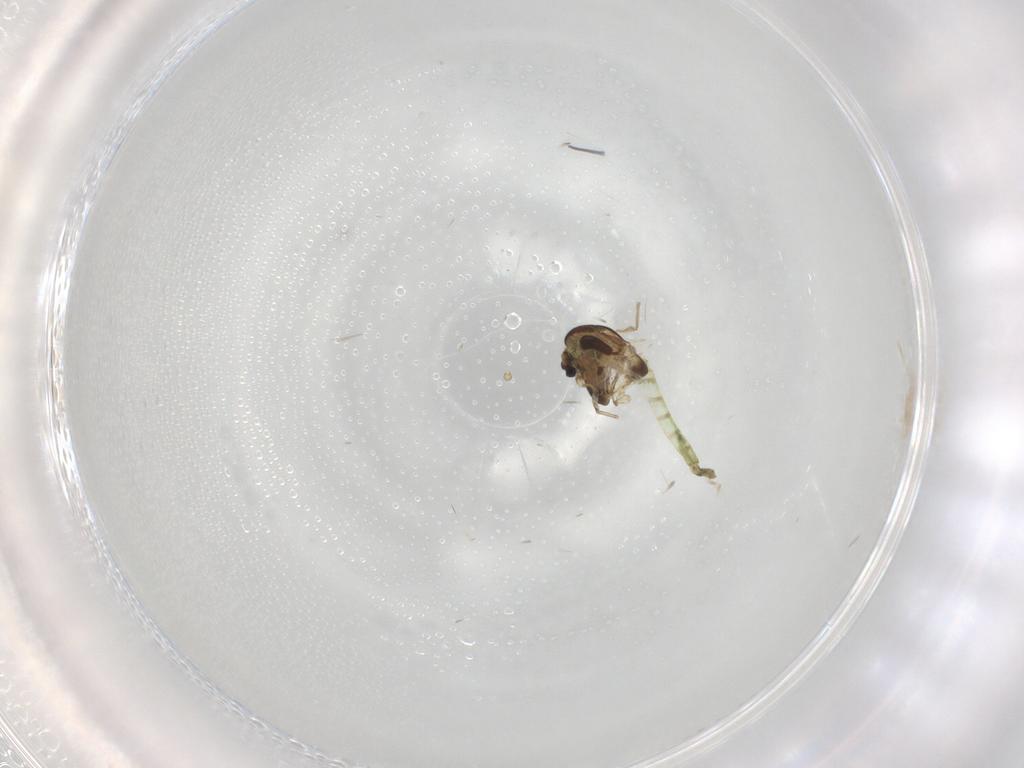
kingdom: Animalia
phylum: Arthropoda
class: Insecta
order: Diptera
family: Chironomidae
